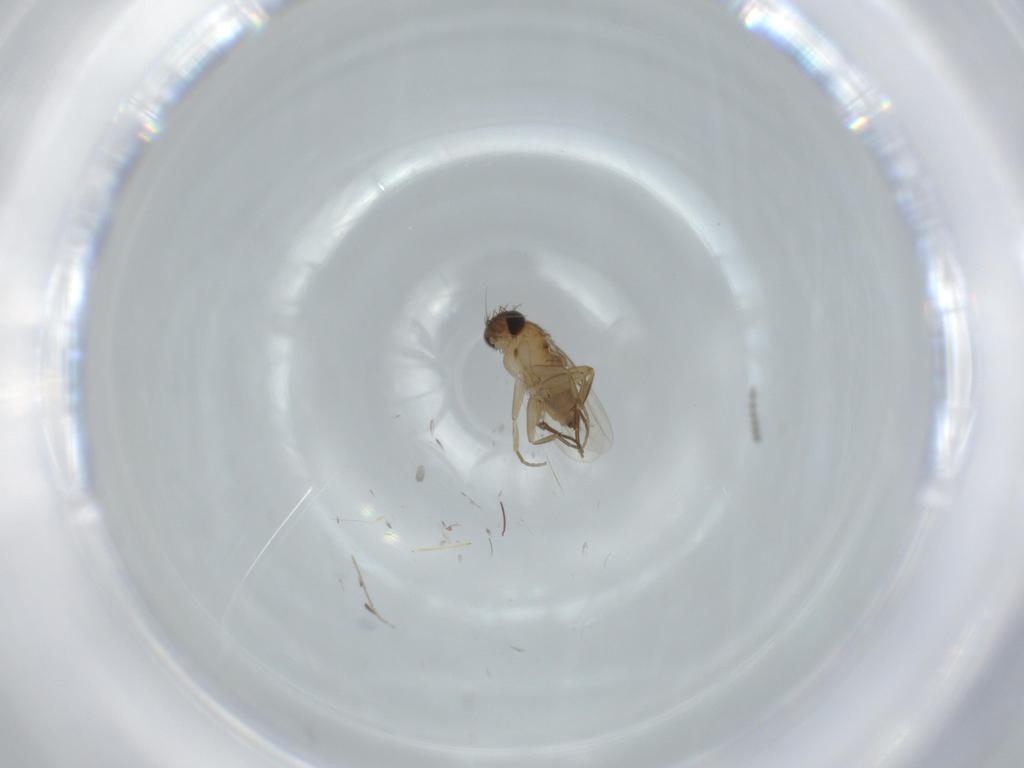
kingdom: Animalia
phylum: Arthropoda
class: Insecta
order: Diptera
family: Phoridae
